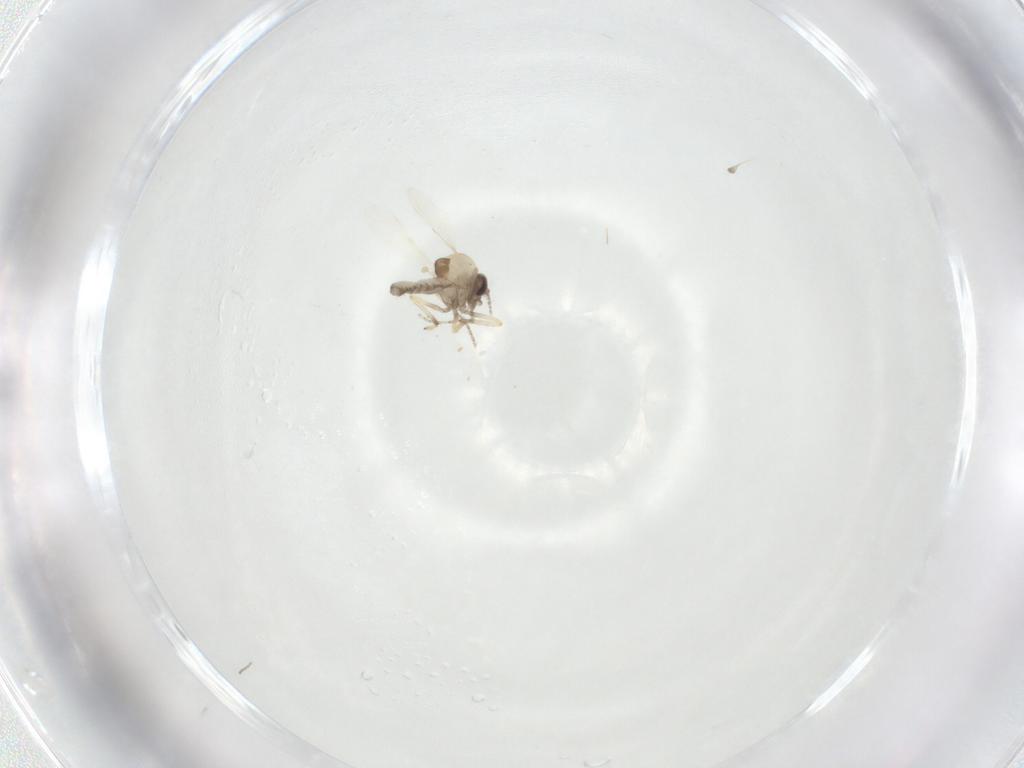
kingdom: Animalia
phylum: Arthropoda
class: Insecta
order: Diptera
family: Ceratopogonidae
